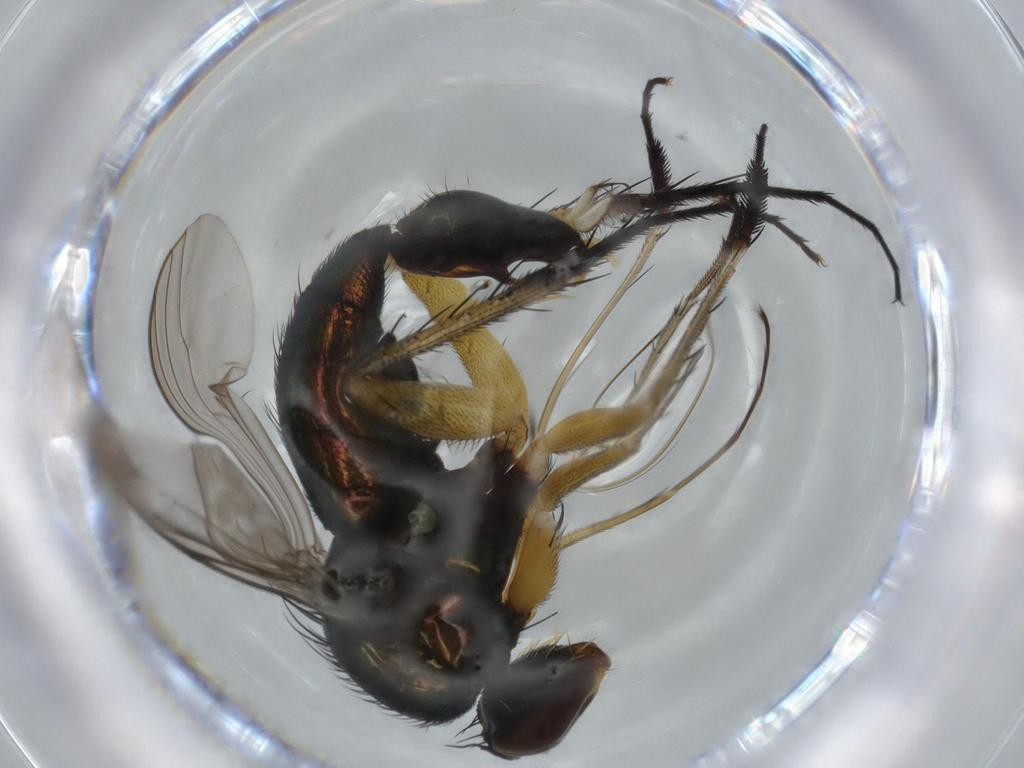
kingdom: Animalia
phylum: Arthropoda
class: Insecta
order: Diptera
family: Dolichopodidae
